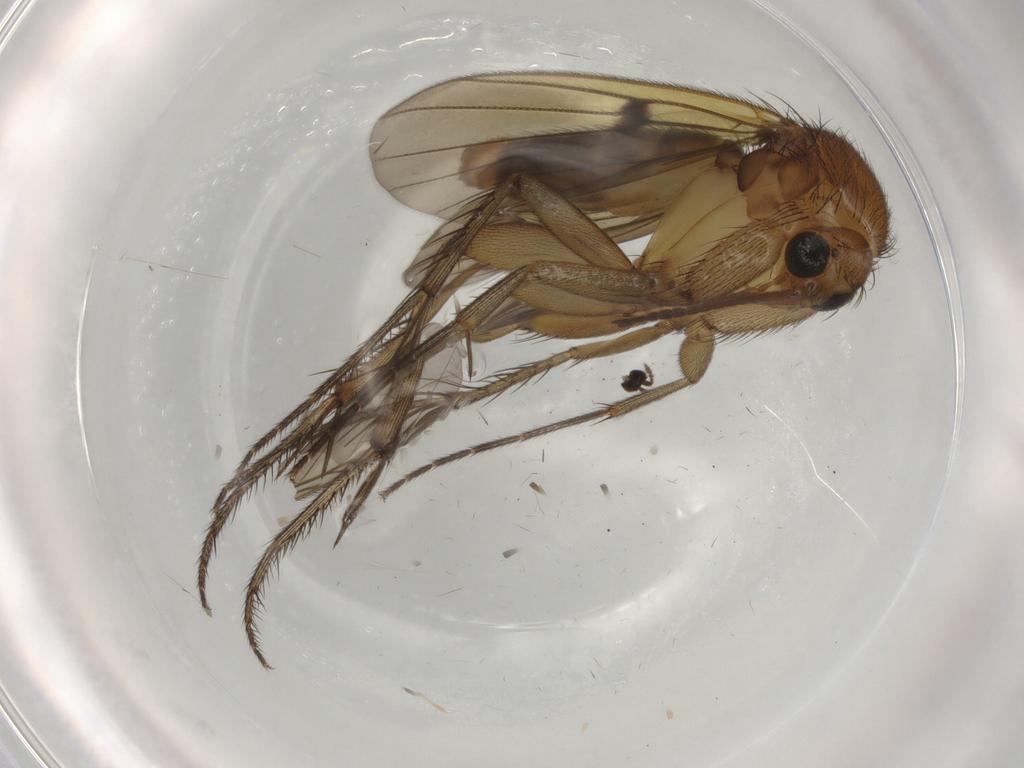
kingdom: Animalia
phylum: Arthropoda
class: Insecta
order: Diptera
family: Mycetophilidae
